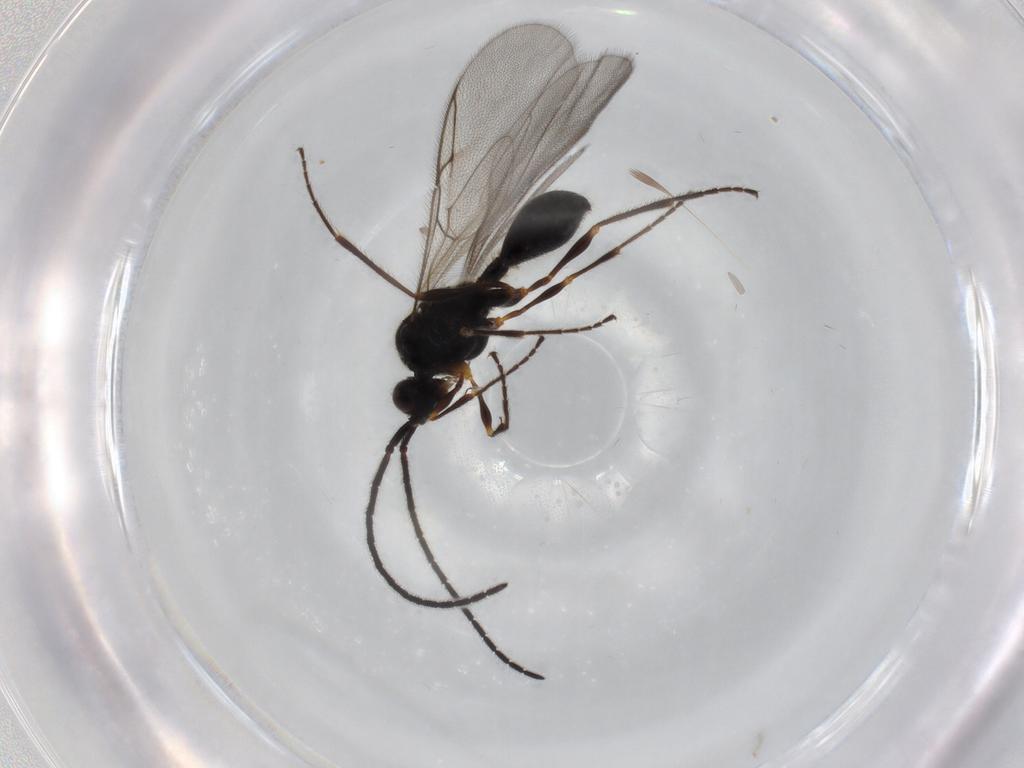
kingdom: Animalia
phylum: Arthropoda
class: Insecta
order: Hymenoptera
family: Diapriidae
